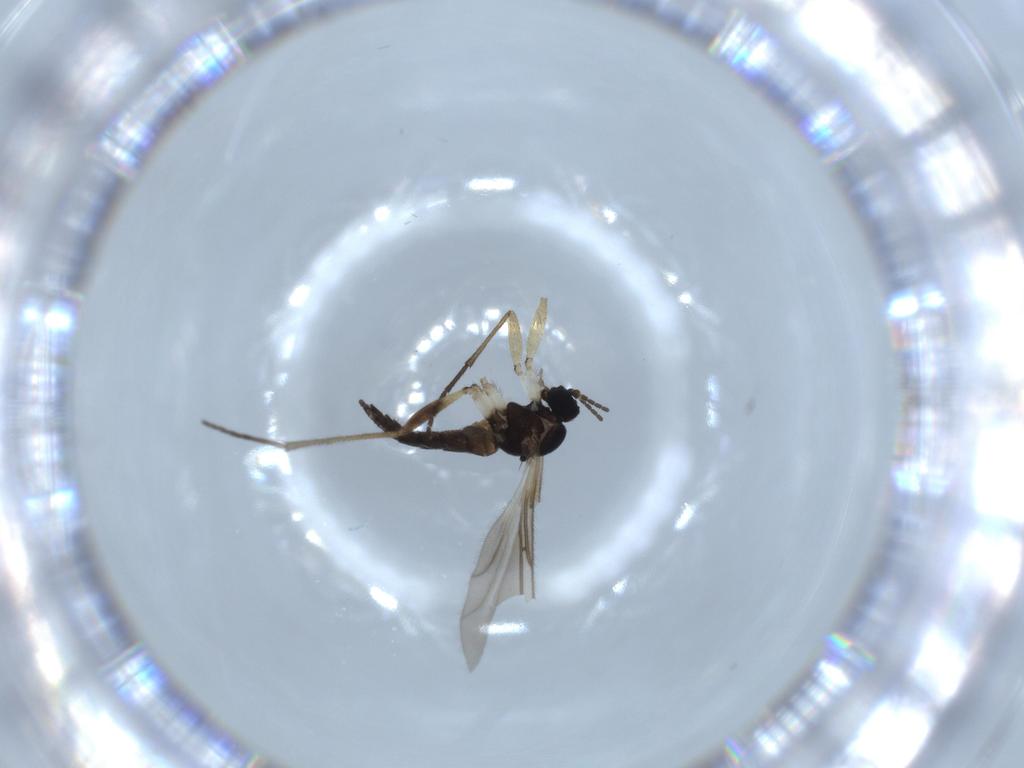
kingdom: Animalia
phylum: Arthropoda
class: Insecta
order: Diptera
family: Sciaridae
